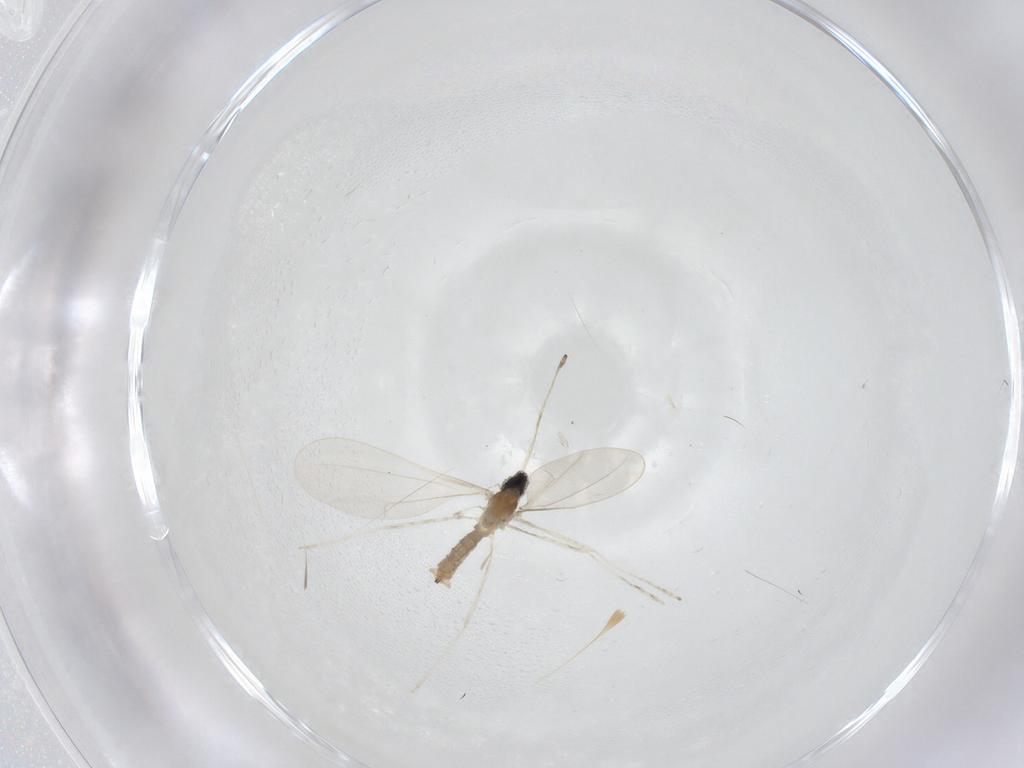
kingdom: Animalia
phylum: Arthropoda
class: Insecta
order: Diptera
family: Cecidomyiidae
